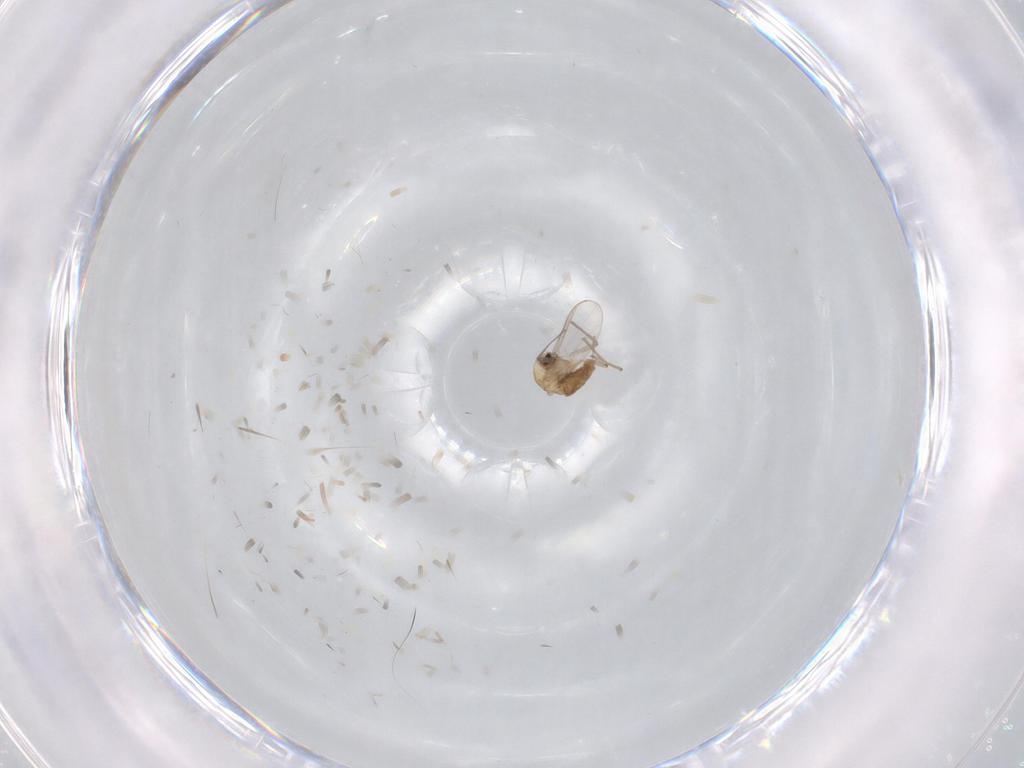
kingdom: Animalia
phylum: Arthropoda
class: Insecta
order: Diptera
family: Chironomidae
